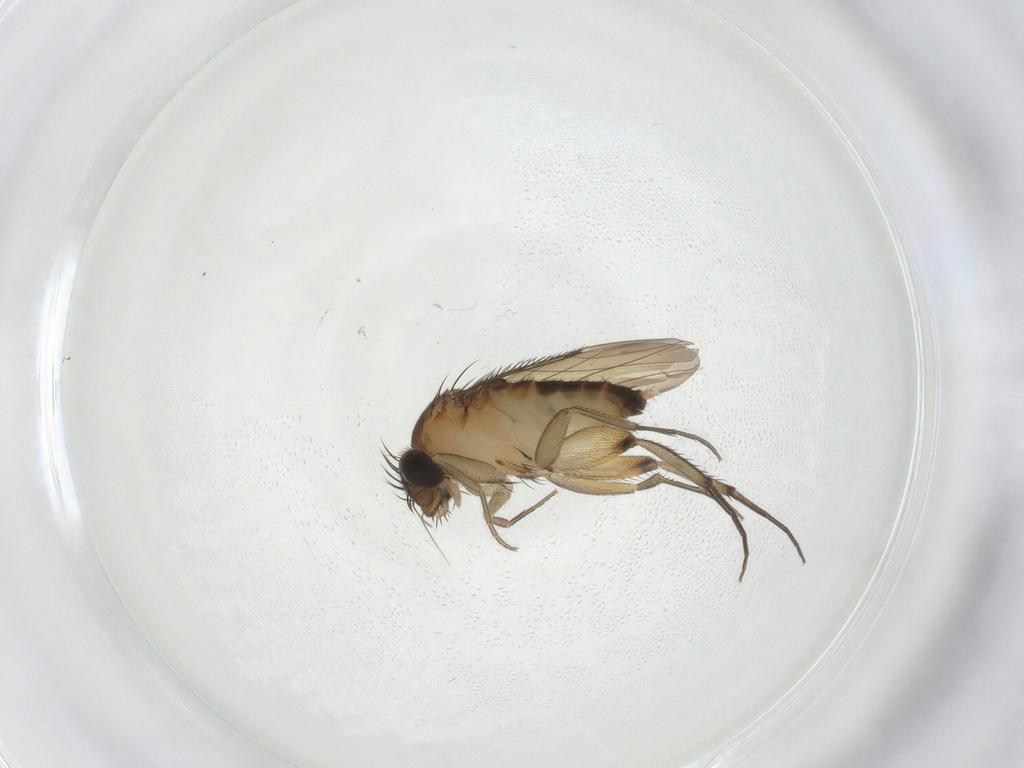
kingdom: Animalia
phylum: Arthropoda
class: Insecta
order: Diptera
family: Phoridae
